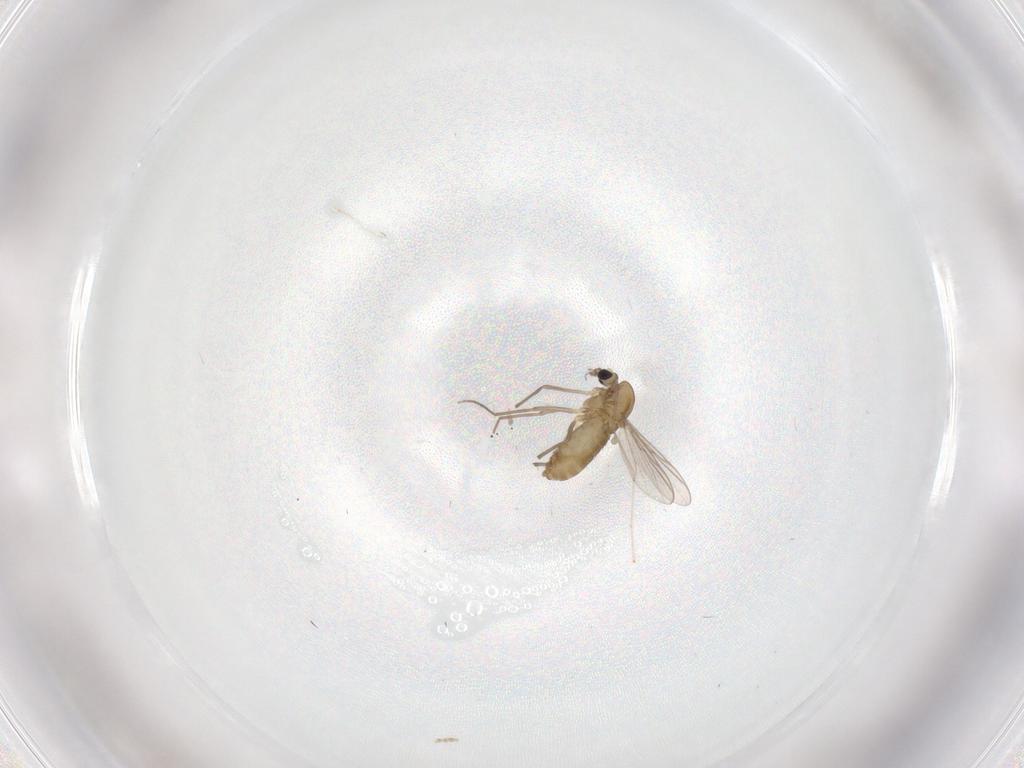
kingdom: Animalia
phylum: Arthropoda
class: Insecta
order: Diptera
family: Chironomidae
